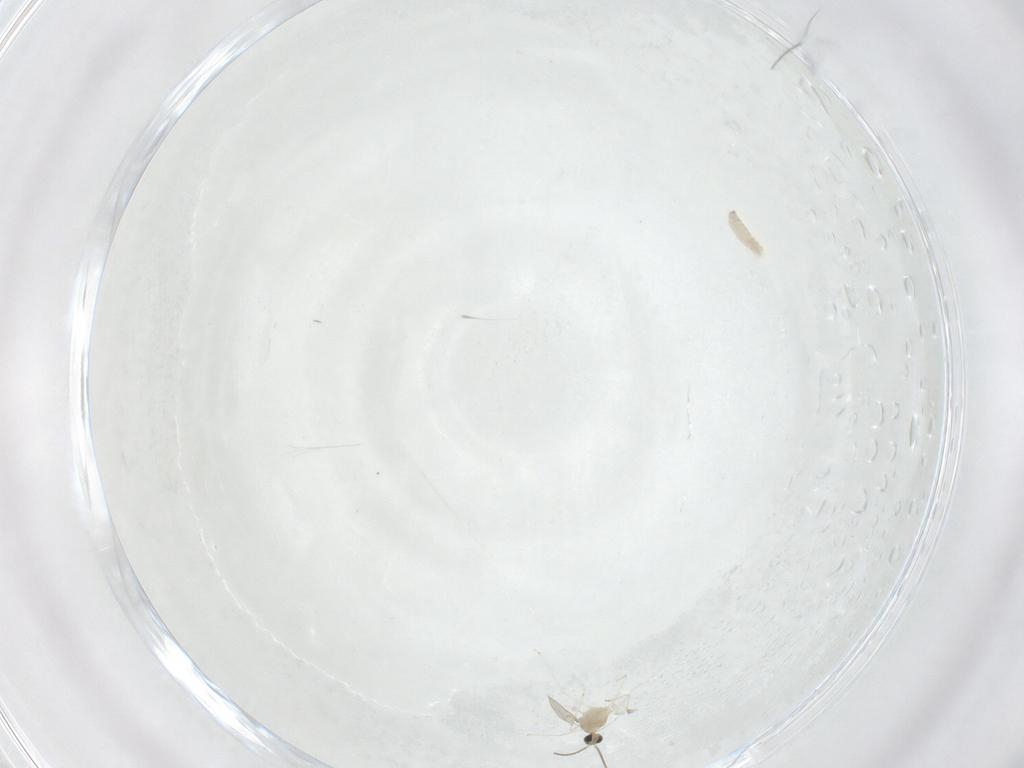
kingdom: Animalia
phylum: Arthropoda
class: Insecta
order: Diptera
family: Cecidomyiidae
